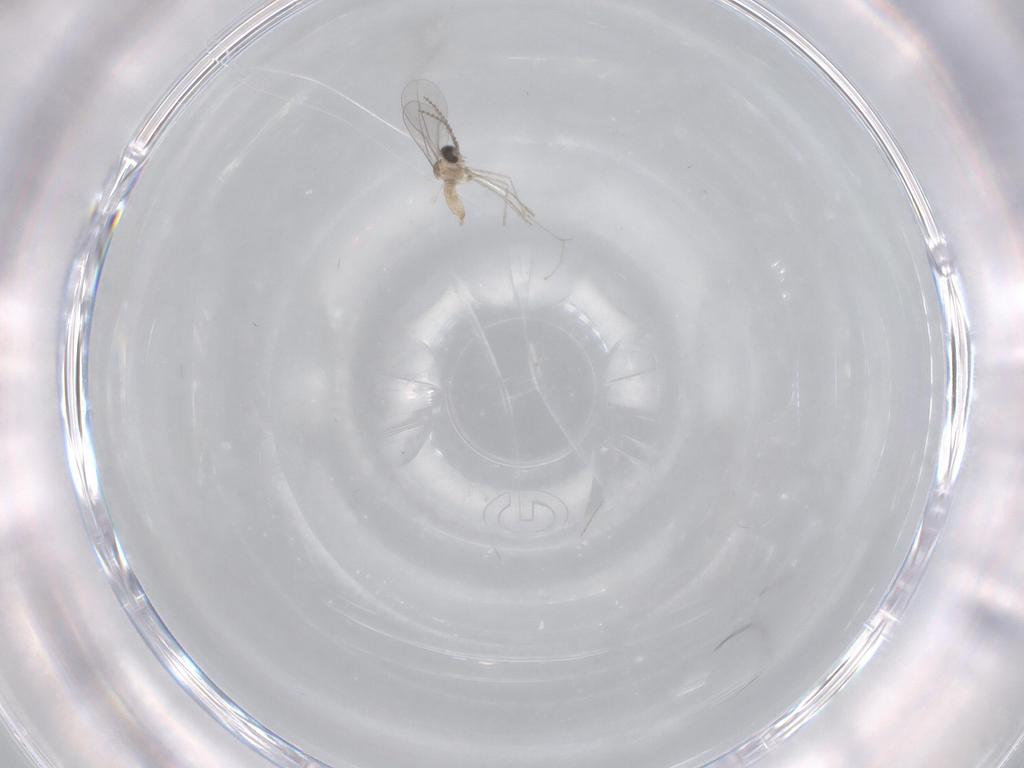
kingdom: Animalia
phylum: Arthropoda
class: Insecta
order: Diptera
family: Cecidomyiidae
